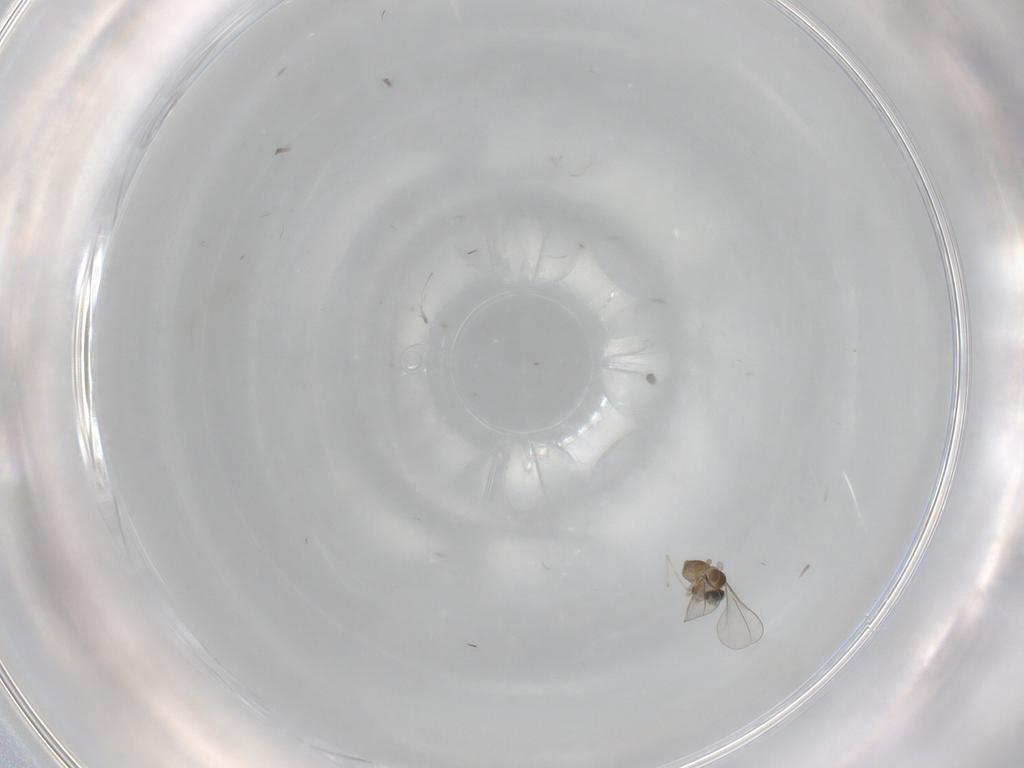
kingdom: Animalia
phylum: Arthropoda
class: Insecta
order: Diptera
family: Cecidomyiidae
